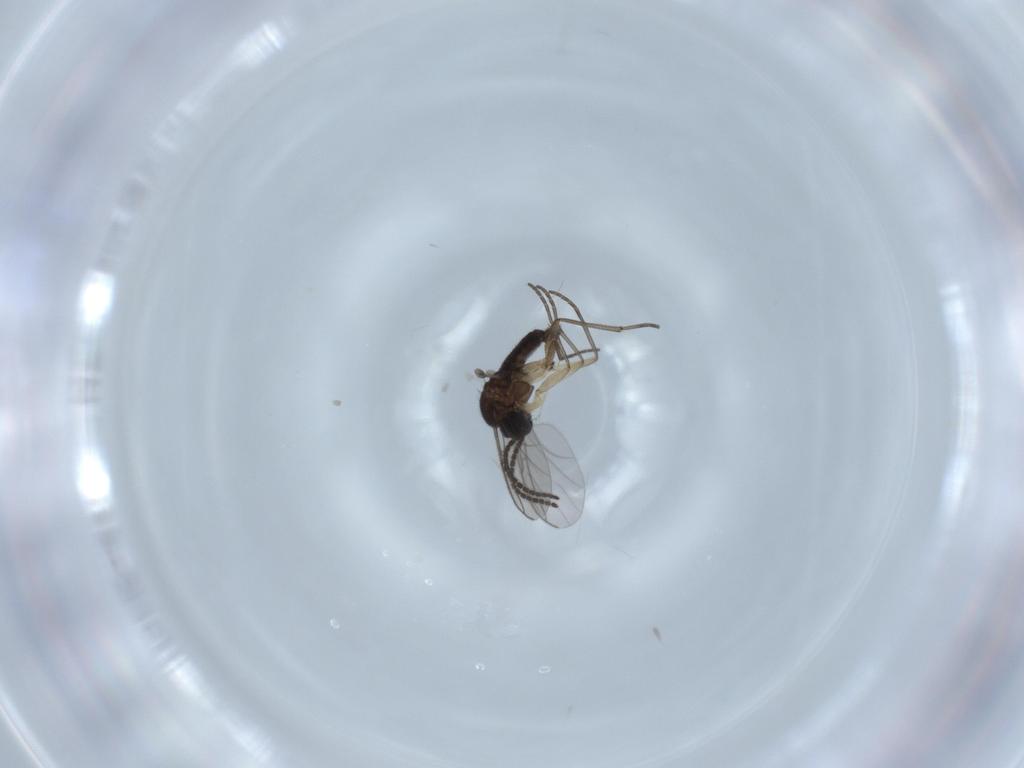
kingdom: Animalia
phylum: Arthropoda
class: Insecta
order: Diptera
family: Sciaridae
